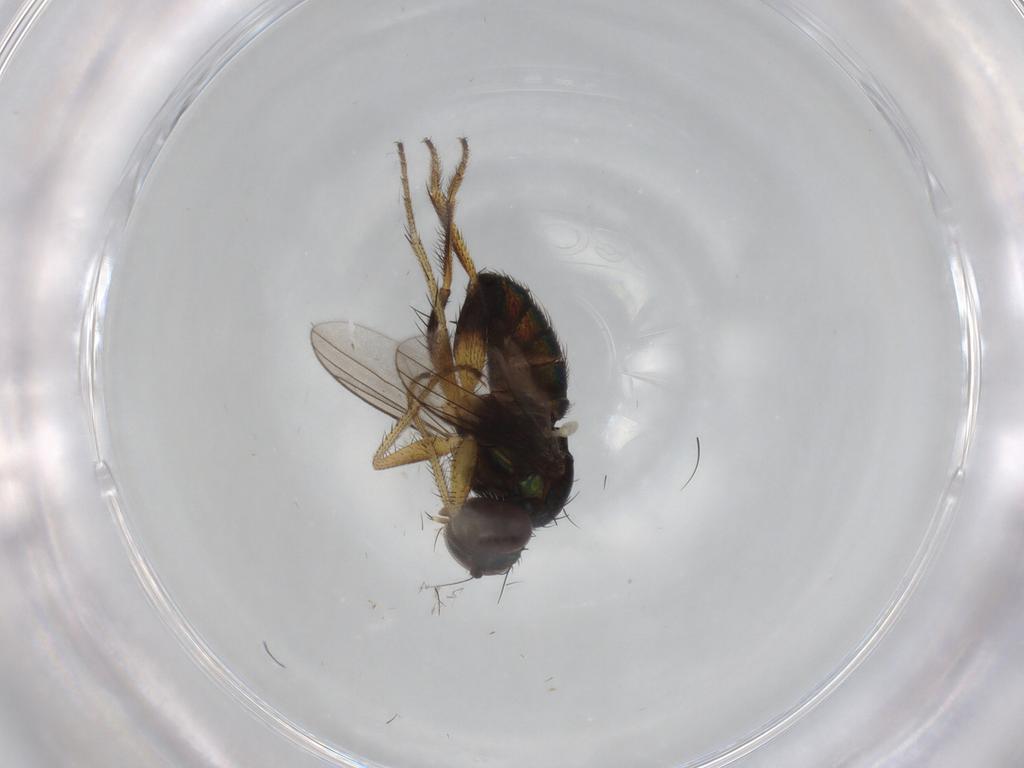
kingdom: Animalia
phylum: Arthropoda
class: Insecta
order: Diptera
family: Dolichopodidae
